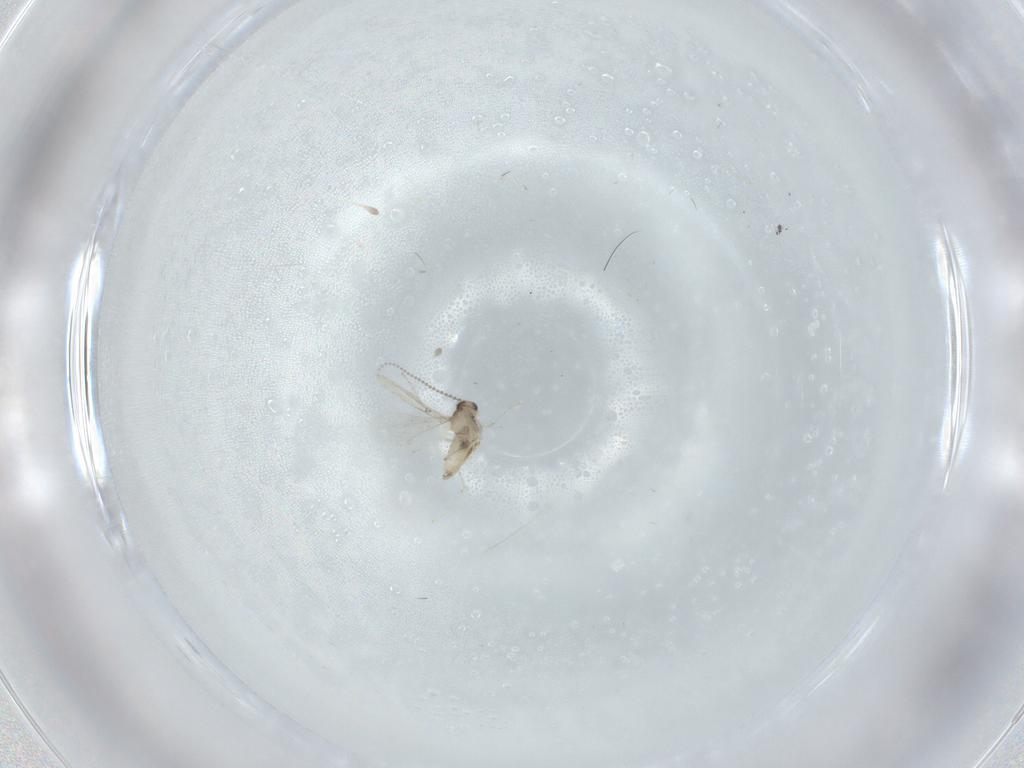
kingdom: Animalia
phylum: Arthropoda
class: Insecta
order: Diptera
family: Cecidomyiidae
